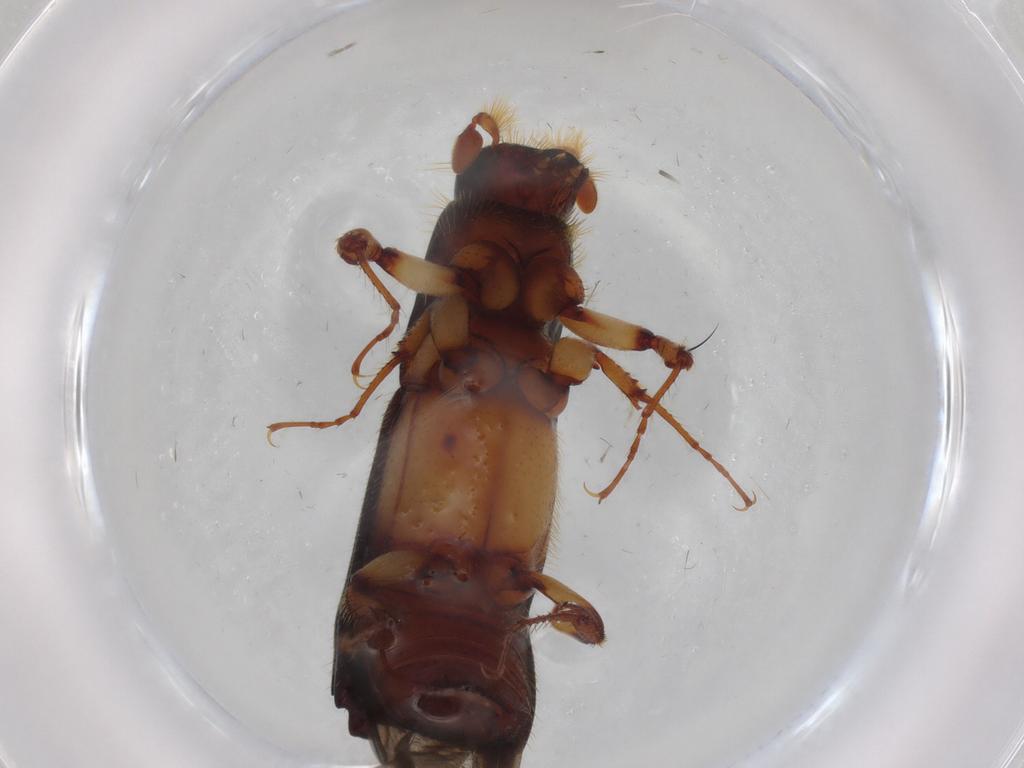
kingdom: Animalia
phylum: Arthropoda
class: Insecta
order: Coleoptera
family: Curculionidae
